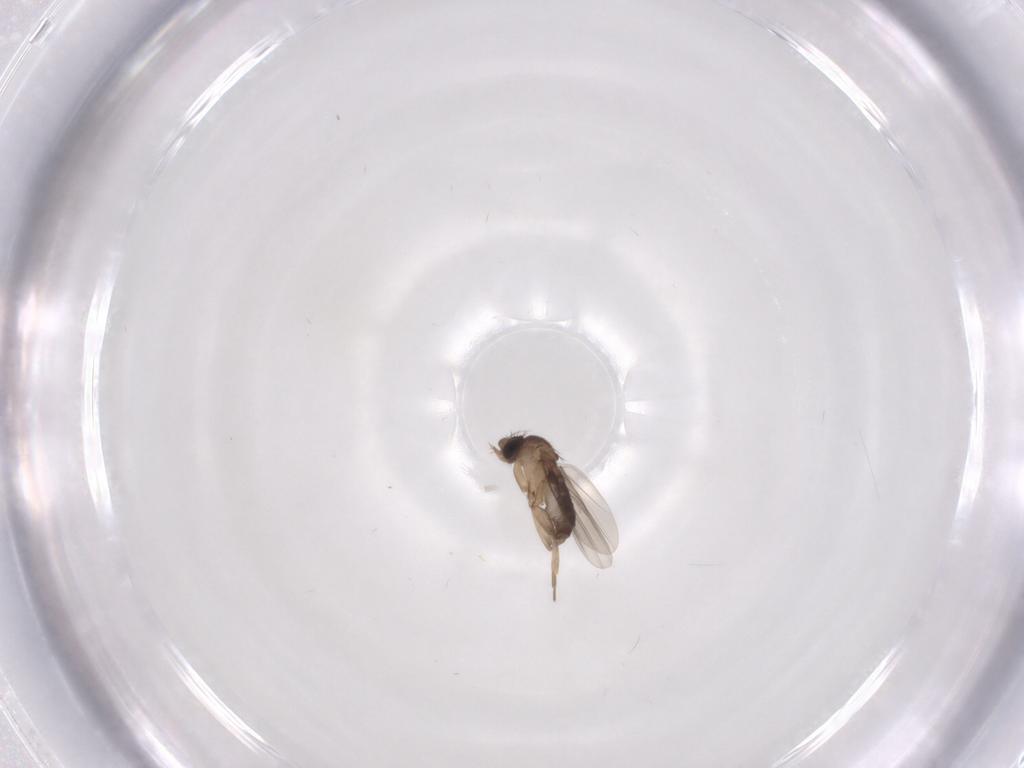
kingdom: Animalia
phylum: Arthropoda
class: Insecta
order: Diptera
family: Empididae
